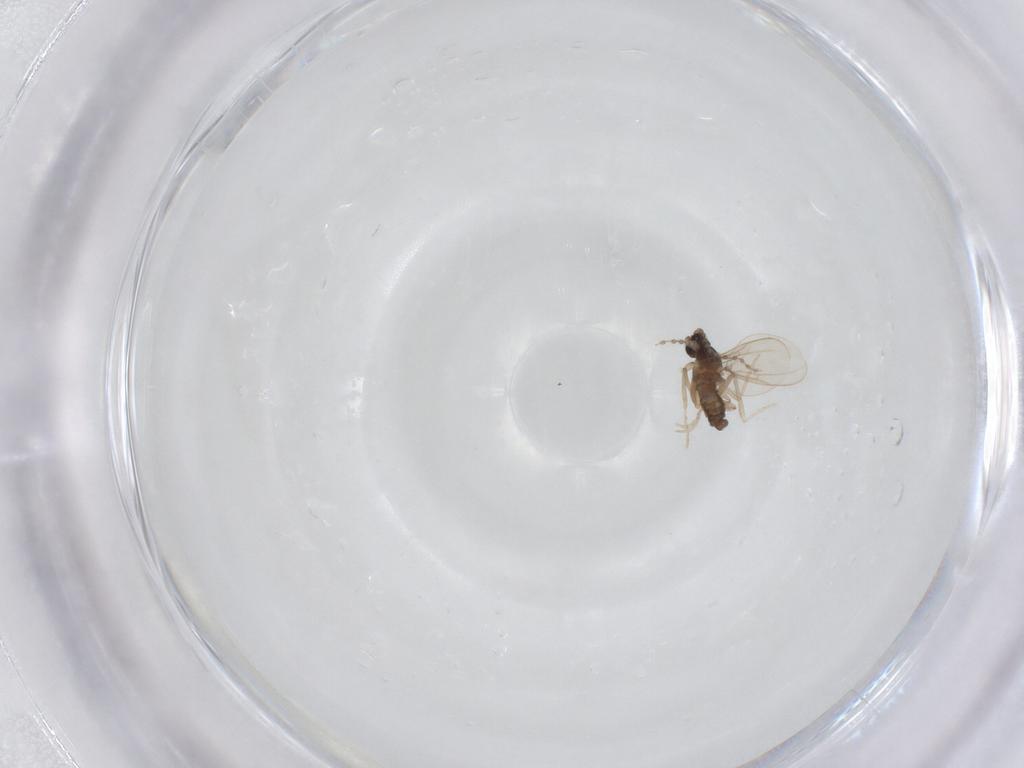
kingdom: Animalia
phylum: Arthropoda
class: Insecta
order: Diptera
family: Cecidomyiidae
